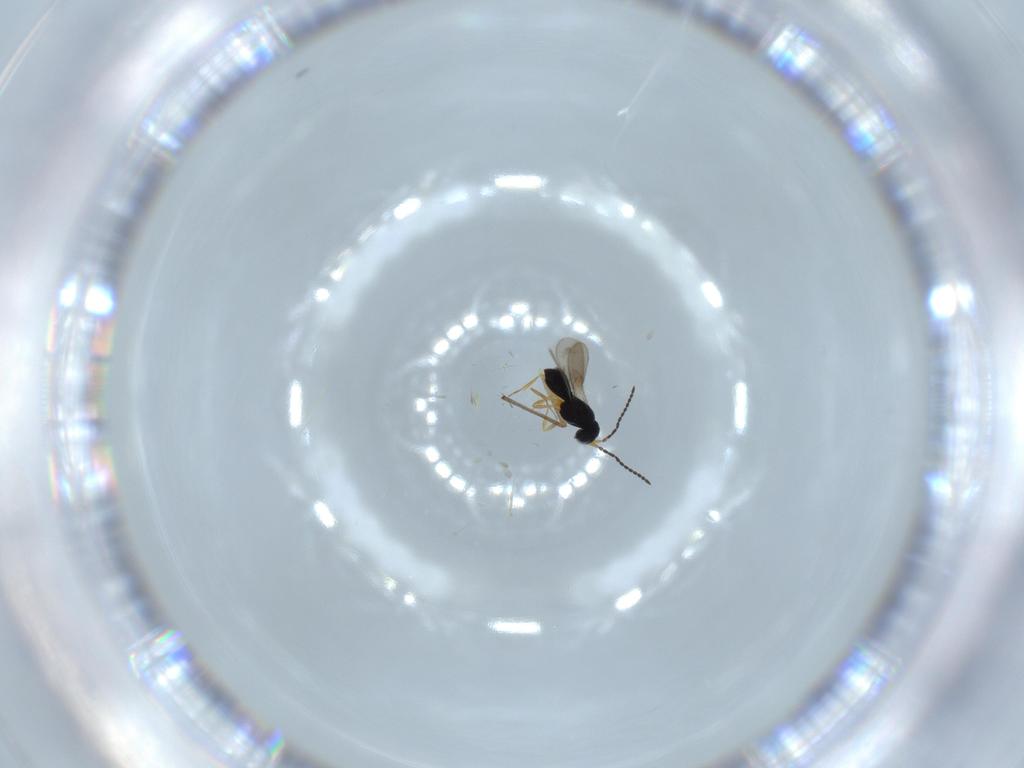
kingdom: Animalia
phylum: Arthropoda
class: Insecta
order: Hymenoptera
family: Scelionidae
